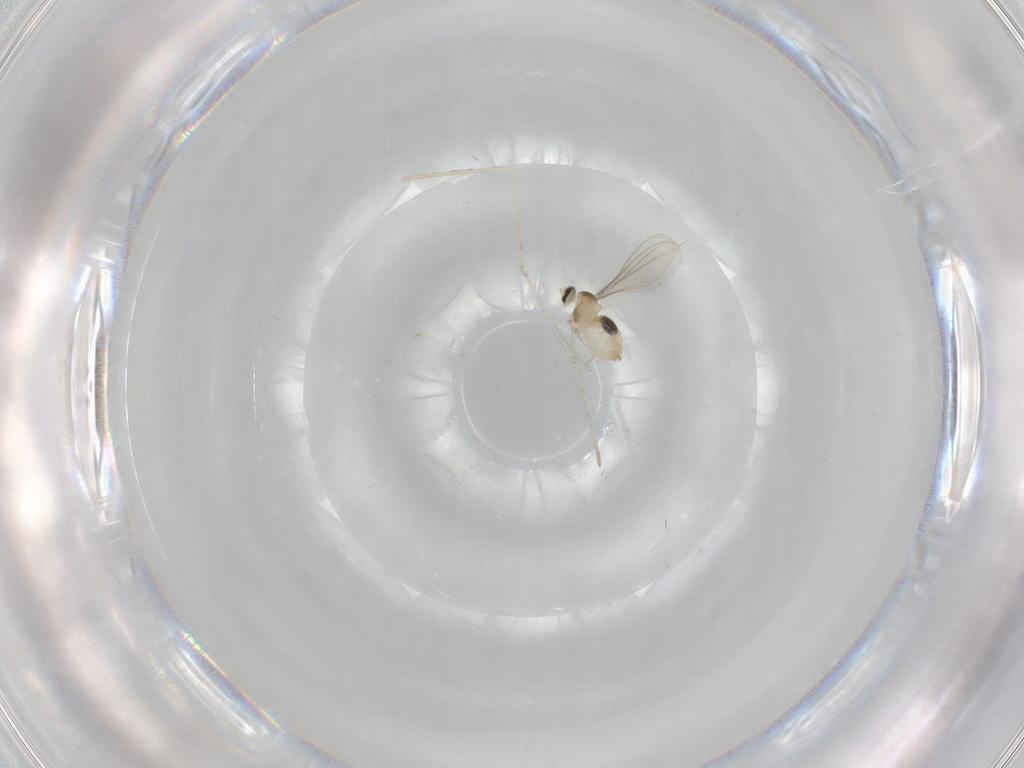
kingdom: Animalia
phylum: Arthropoda
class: Insecta
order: Diptera
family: Cecidomyiidae
